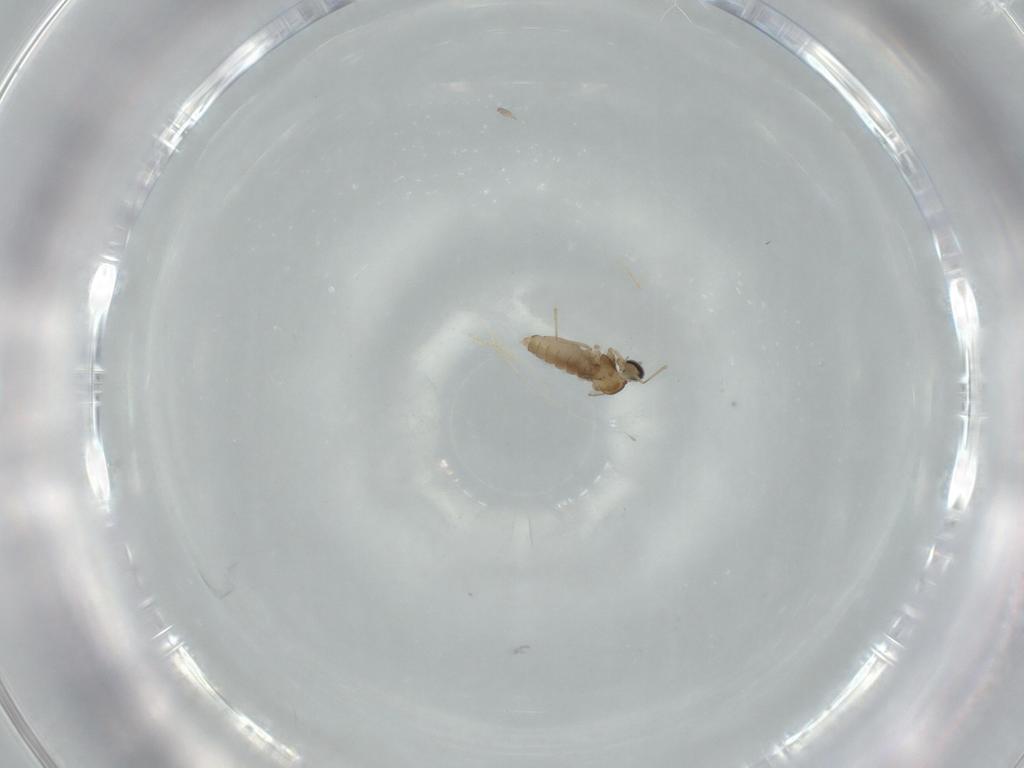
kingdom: Animalia
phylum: Arthropoda
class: Insecta
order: Diptera
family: Cecidomyiidae
